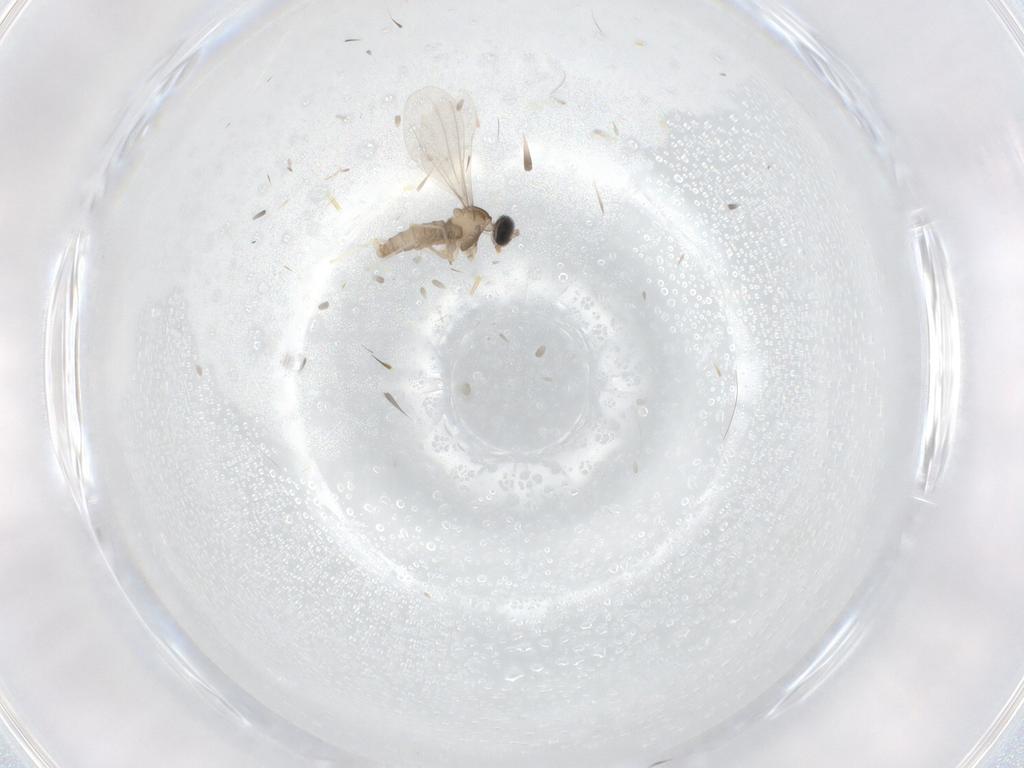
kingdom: Animalia
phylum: Arthropoda
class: Insecta
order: Diptera
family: Cecidomyiidae
